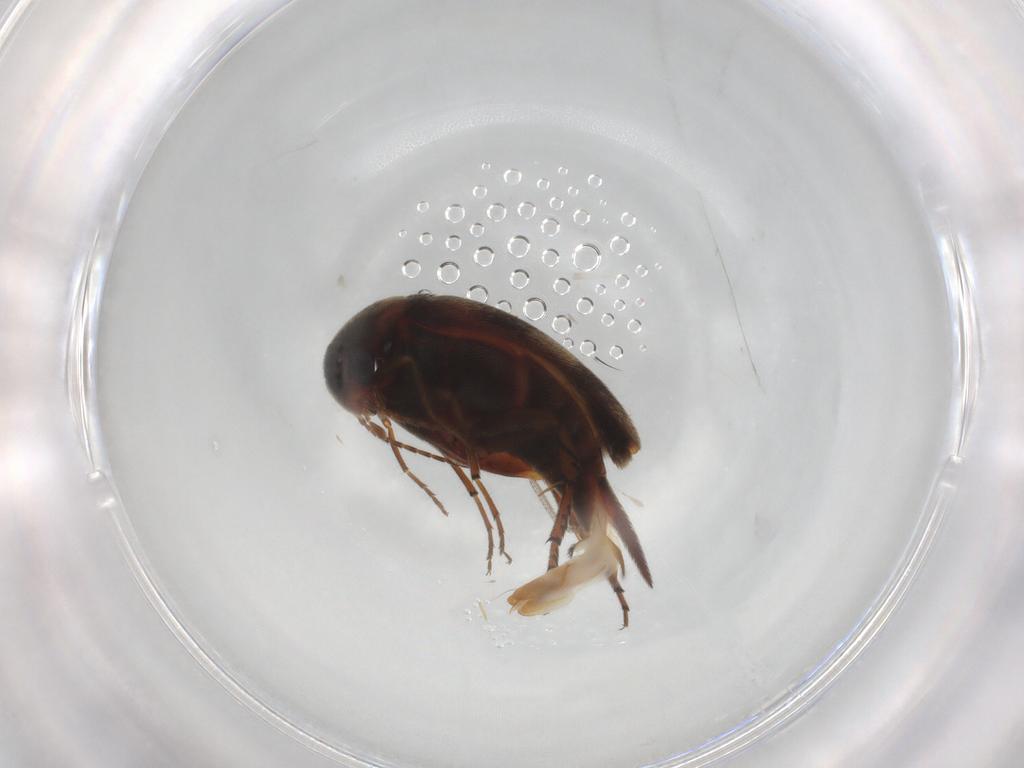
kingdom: Animalia
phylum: Arthropoda
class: Insecta
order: Coleoptera
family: Mordellidae
